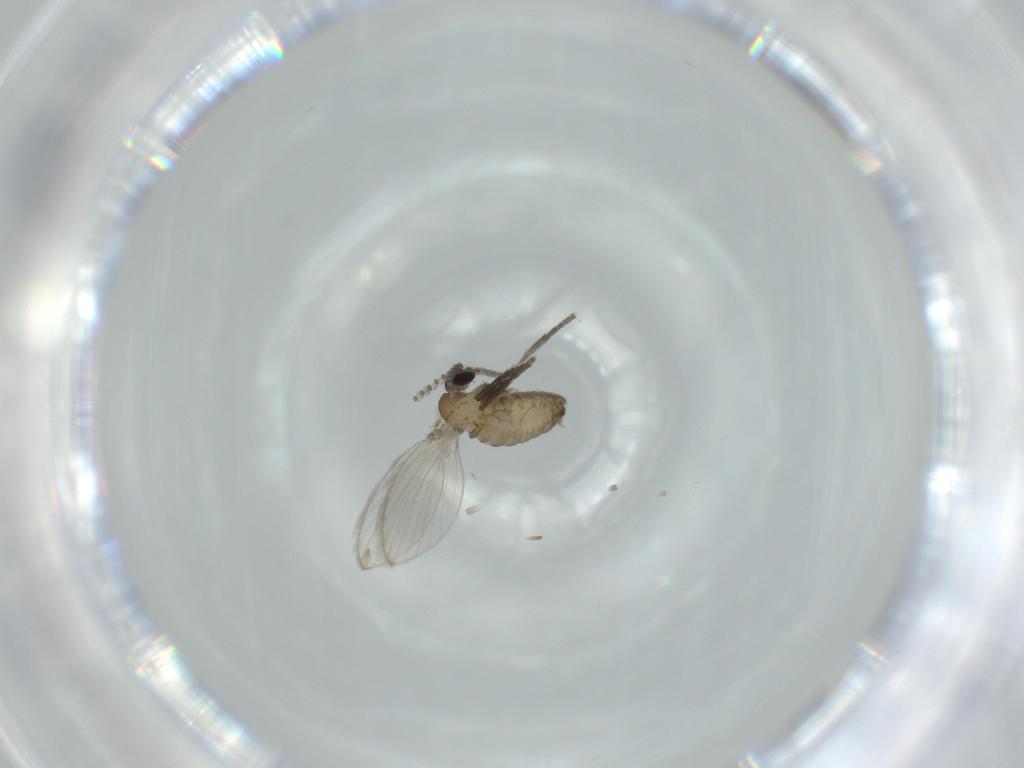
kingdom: Animalia
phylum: Arthropoda
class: Insecta
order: Diptera
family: Psychodidae
